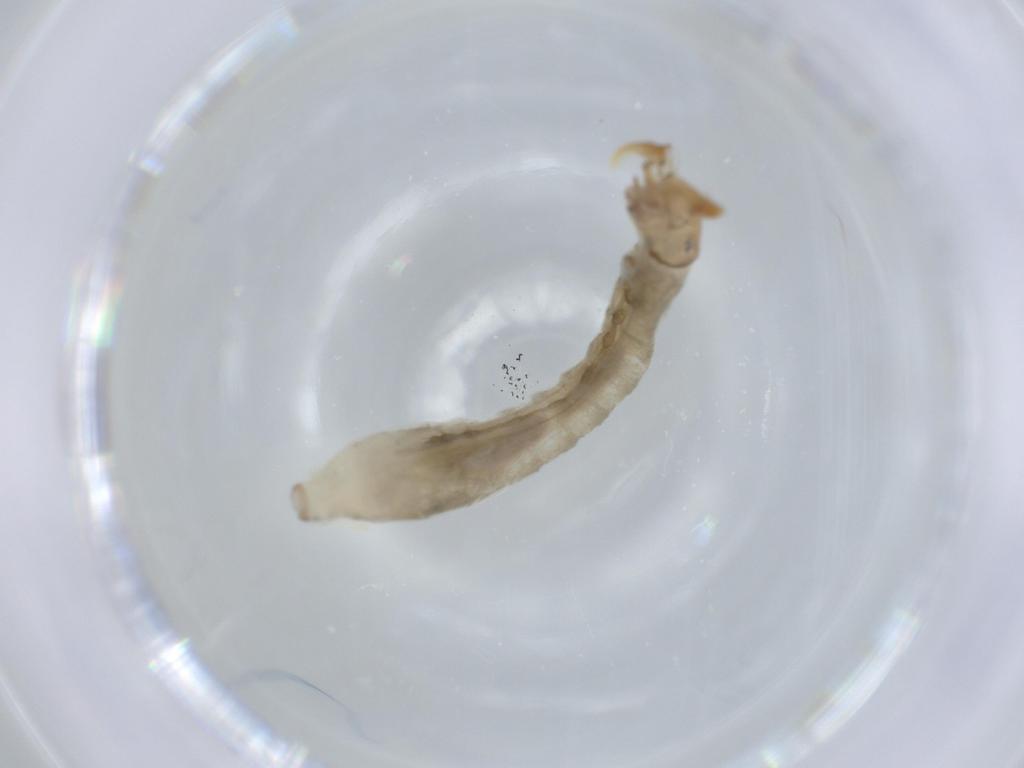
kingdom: Animalia
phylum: Arthropoda
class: Insecta
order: Diptera
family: Simuliidae
